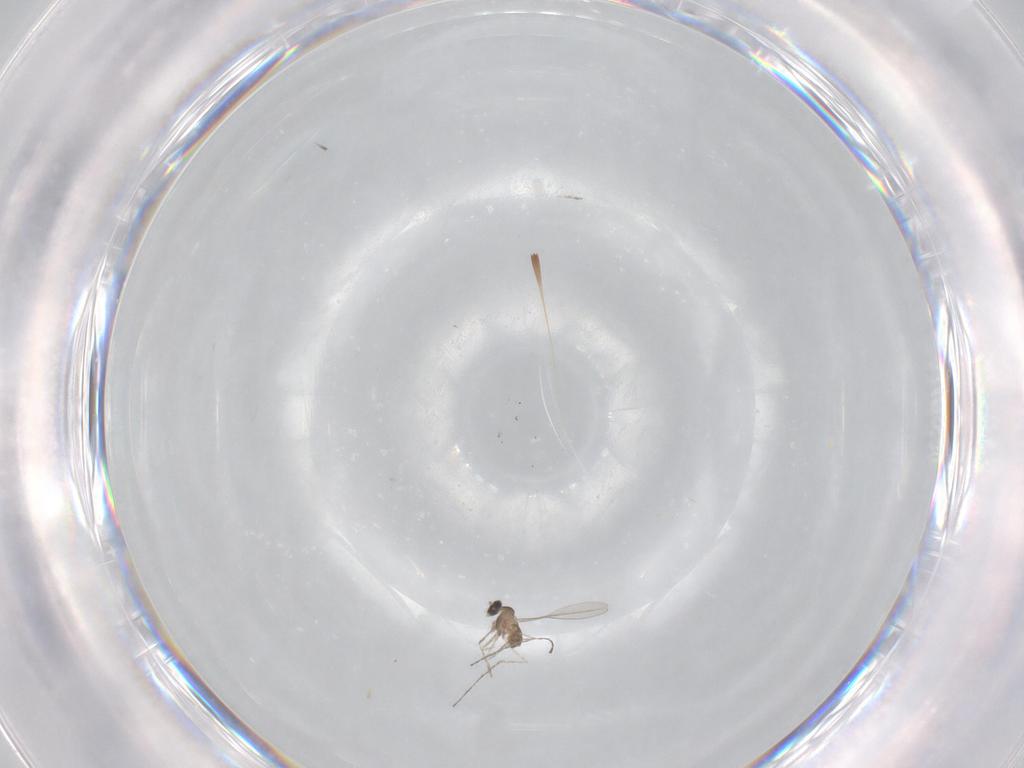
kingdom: Animalia
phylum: Arthropoda
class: Insecta
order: Diptera
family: Cecidomyiidae
